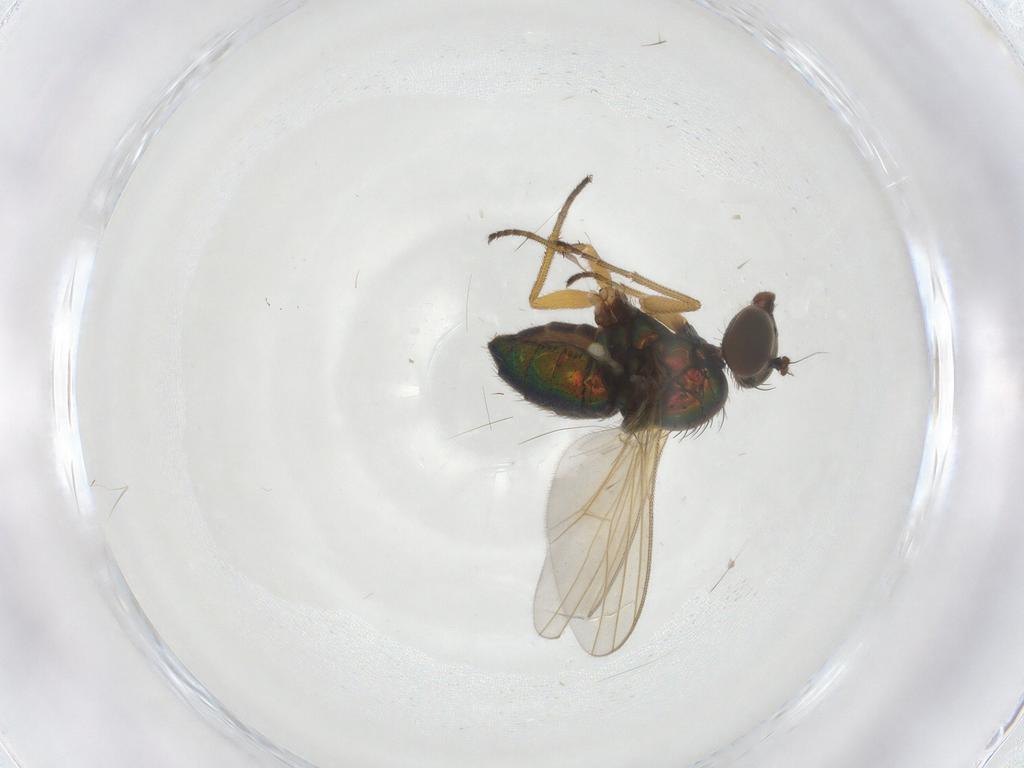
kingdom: Animalia
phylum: Arthropoda
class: Insecta
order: Diptera
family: Dolichopodidae
